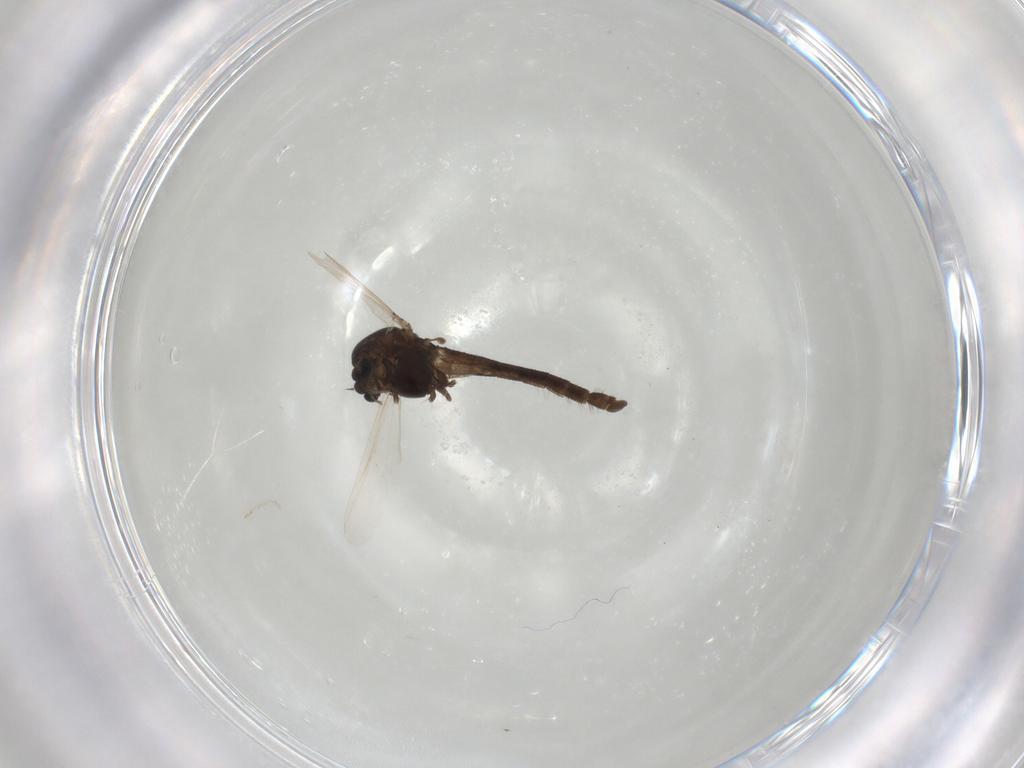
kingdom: Animalia
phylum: Arthropoda
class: Insecta
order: Diptera
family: Chironomidae
